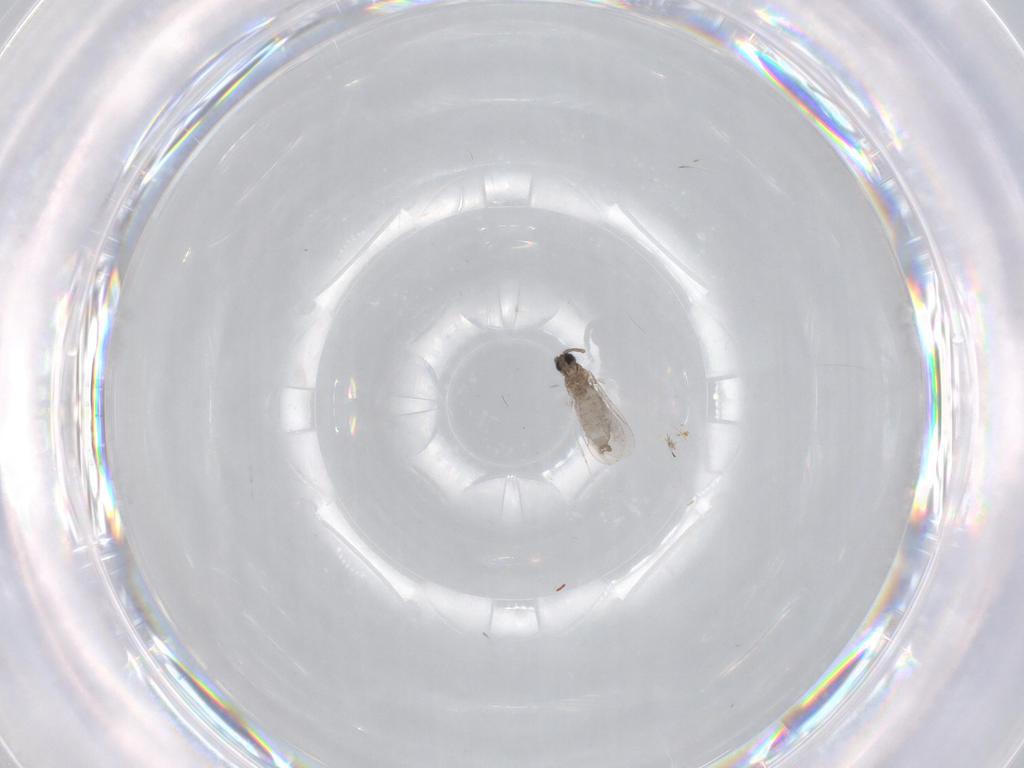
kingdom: Animalia
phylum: Arthropoda
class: Insecta
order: Diptera
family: Cecidomyiidae
